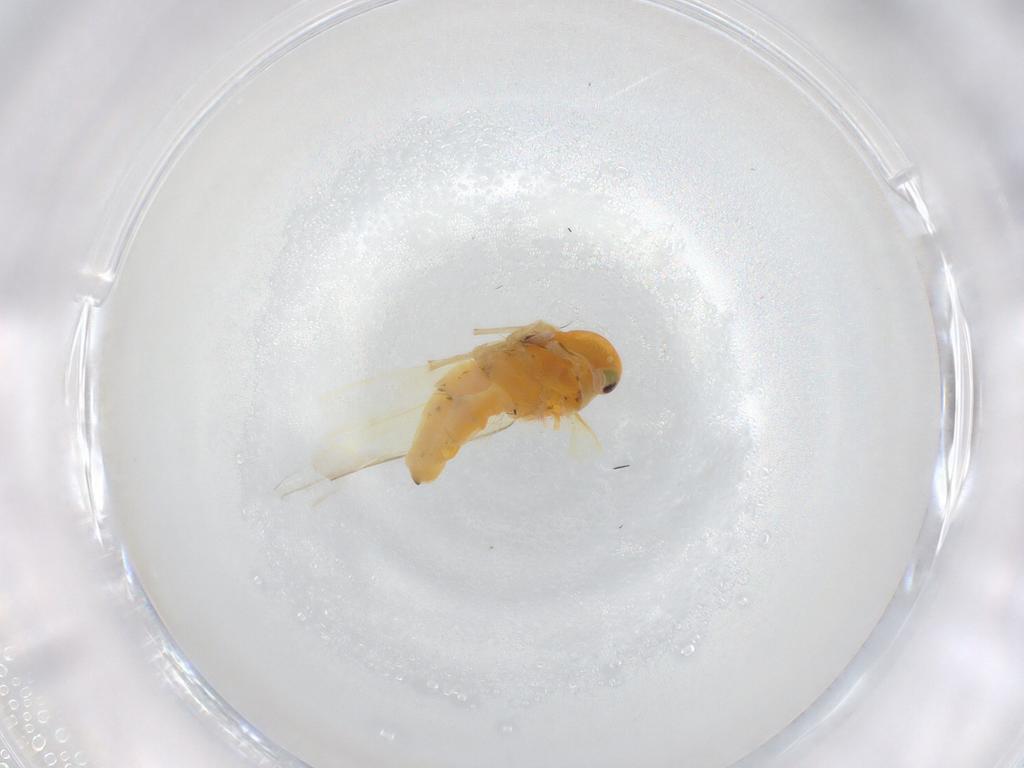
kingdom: Animalia
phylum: Arthropoda
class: Insecta
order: Hemiptera
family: Cicadellidae
